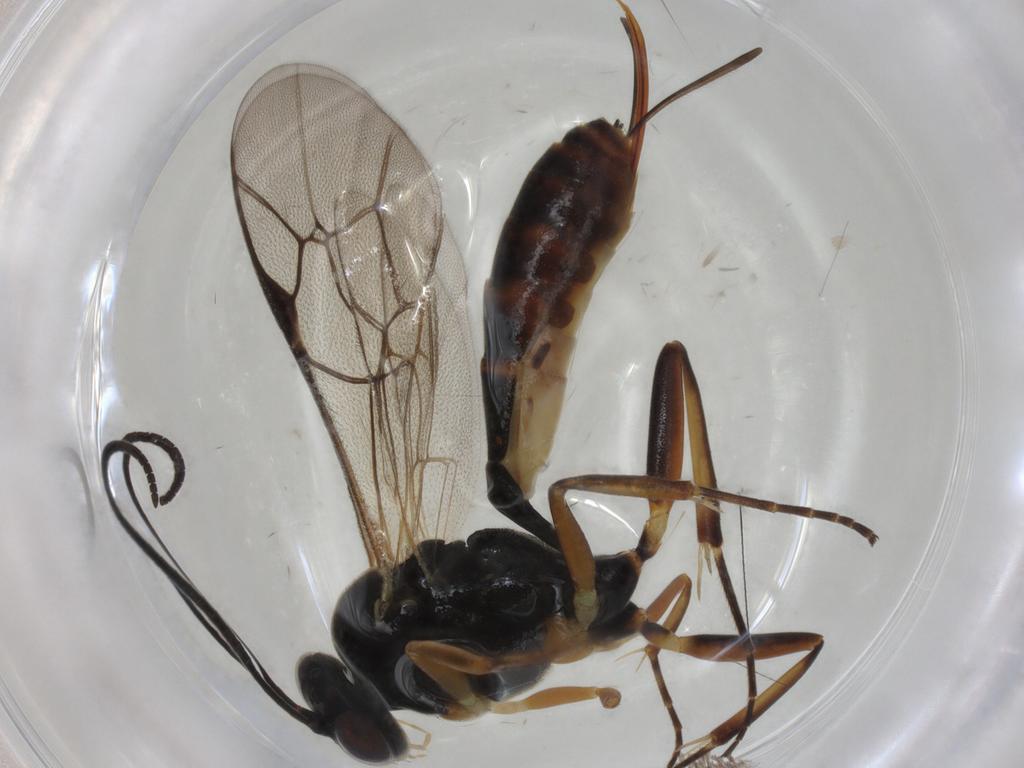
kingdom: Animalia
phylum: Arthropoda
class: Insecta
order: Hymenoptera
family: Ichneumonidae
